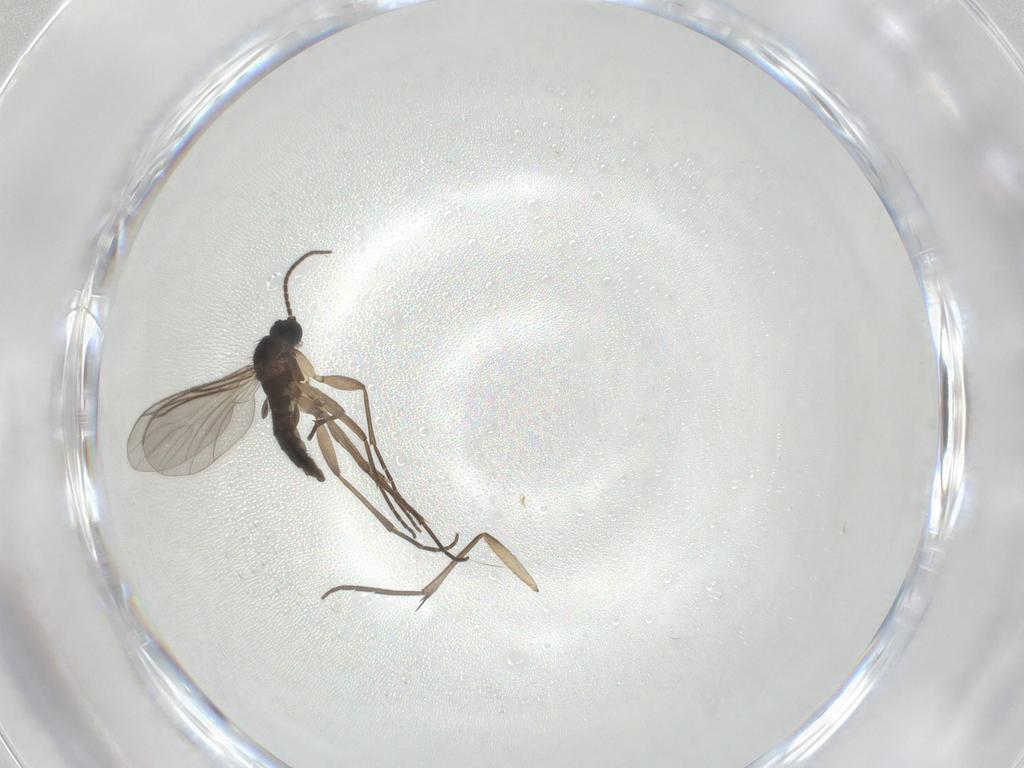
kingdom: Animalia
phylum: Arthropoda
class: Insecta
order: Diptera
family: Keroplatidae
